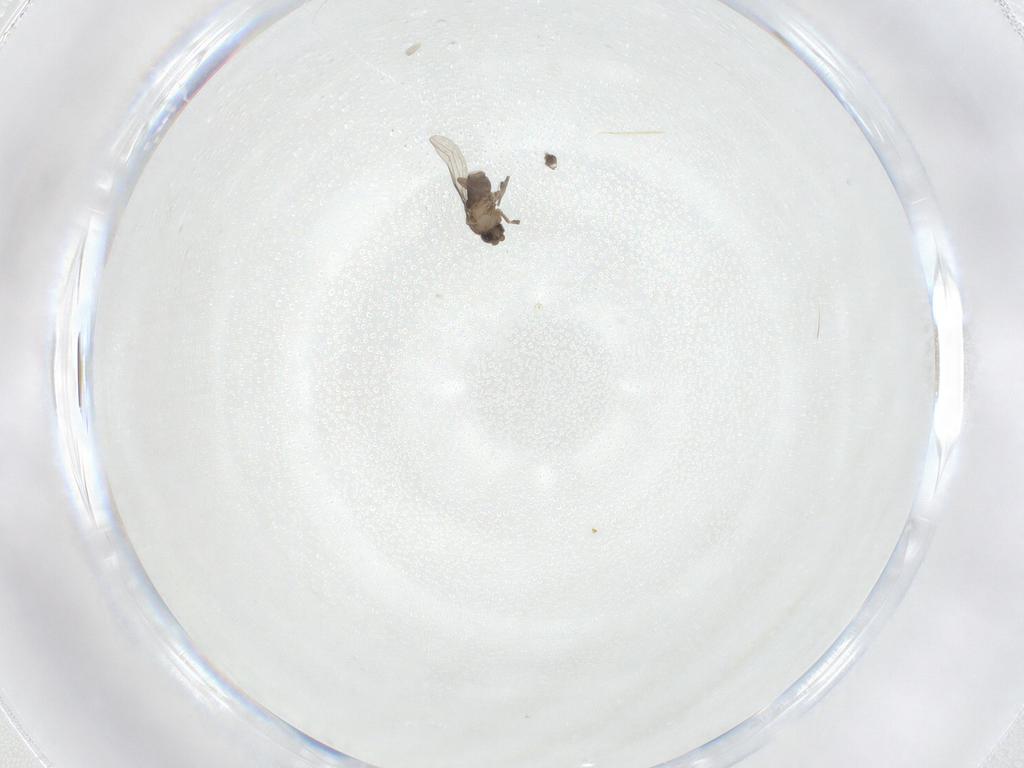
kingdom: Animalia
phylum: Arthropoda
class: Insecta
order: Diptera
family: Phoridae
